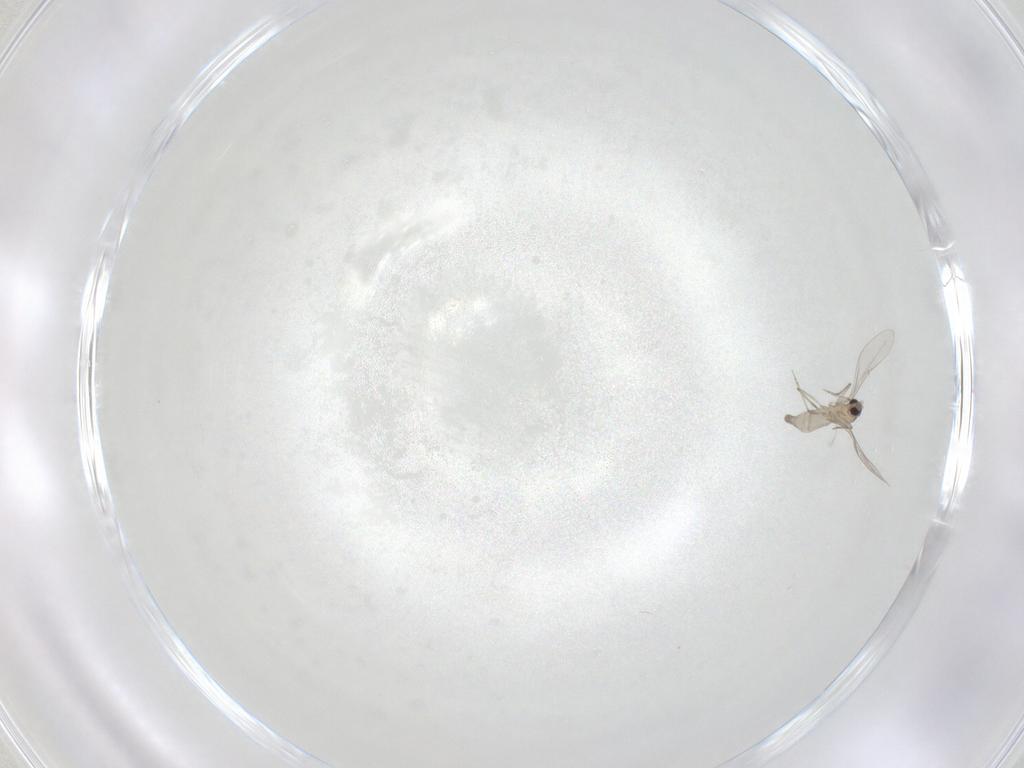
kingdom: Animalia
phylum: Arthropoda
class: Insecta
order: Diptera
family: Cecidomyiidae
